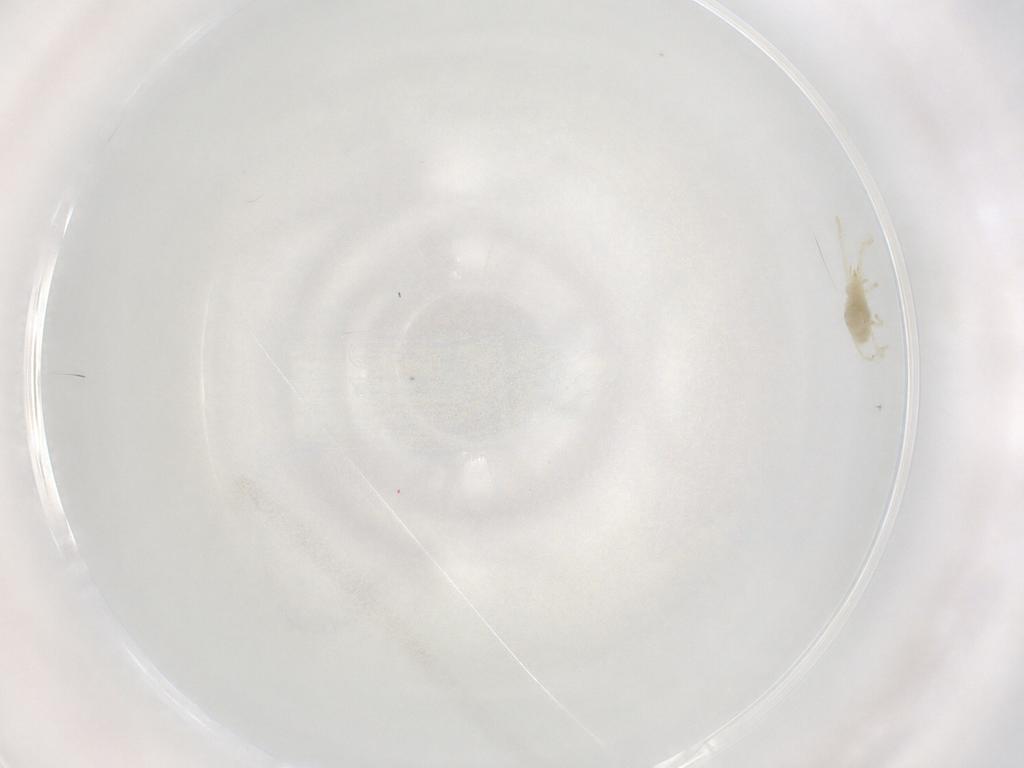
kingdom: Animalia
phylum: Arthropoda
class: Arachnida
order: Trombidiformes
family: Erythraeidae
